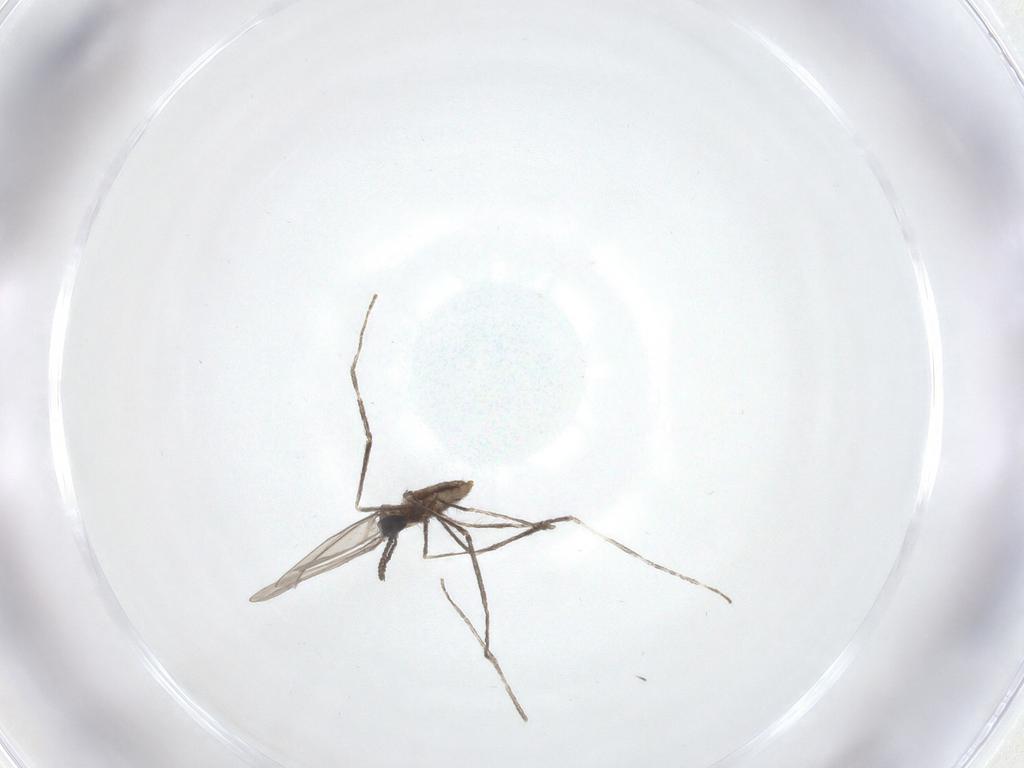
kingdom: Animalia
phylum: Arthropoda
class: Insecta
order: Diptera
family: Sciaridae
